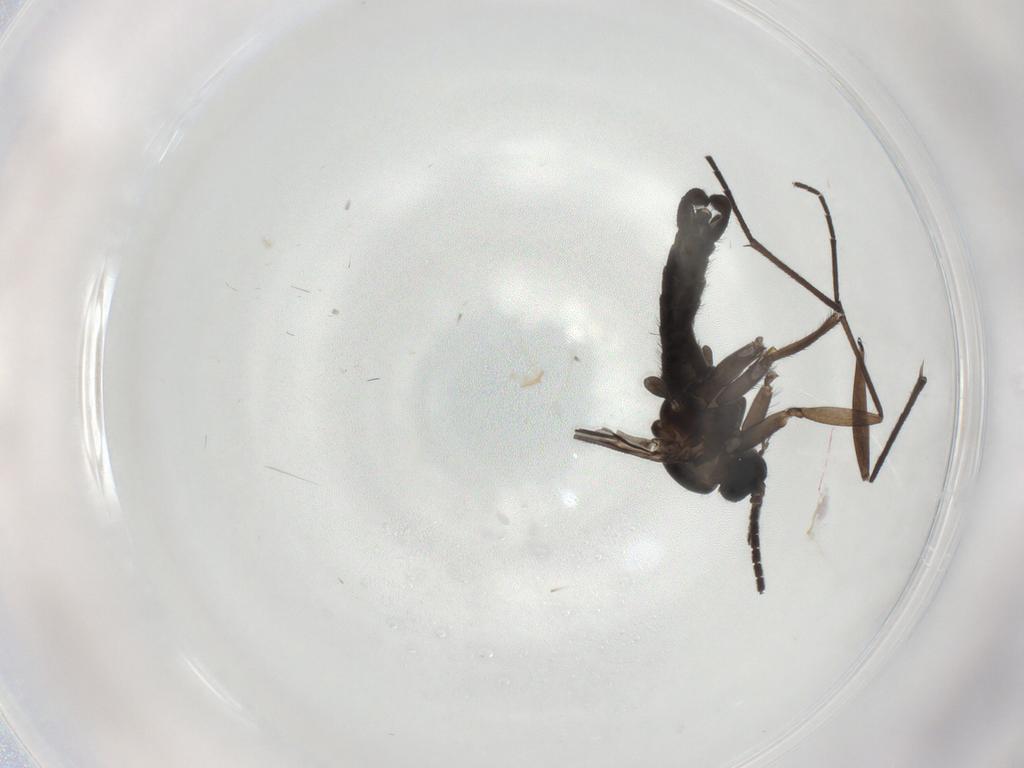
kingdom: Animalia
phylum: Arthropoda
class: Insecta
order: Diptera
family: Sciaridae
